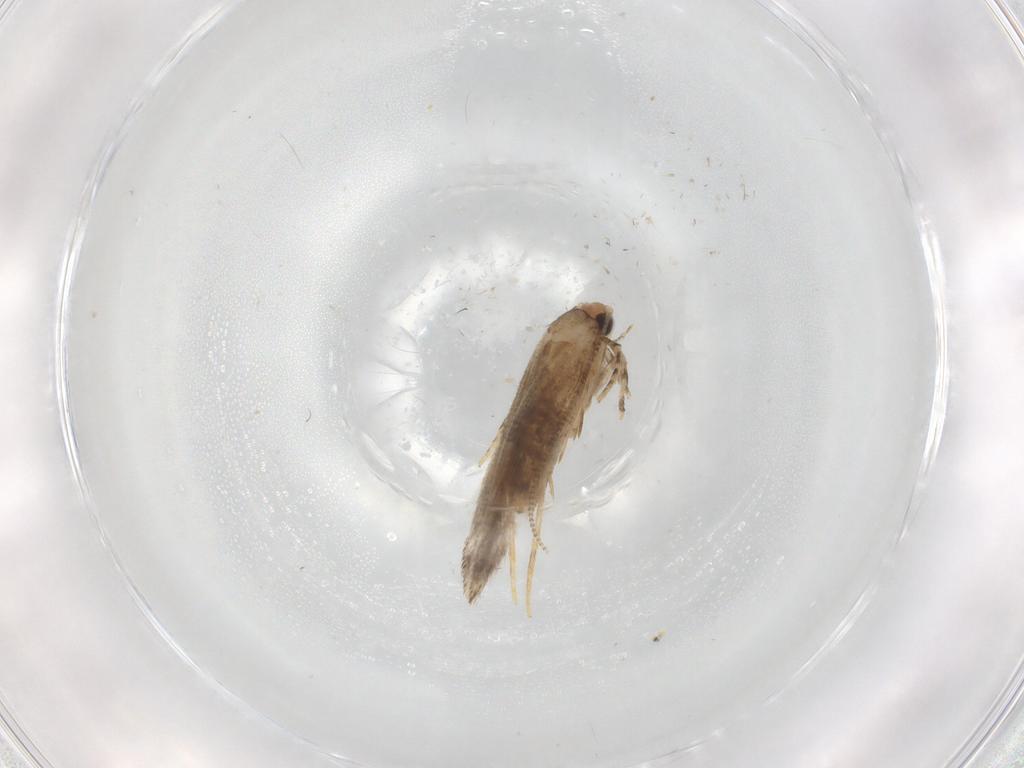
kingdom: Animalia
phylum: Arthropoda
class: Insecta
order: Lepidoptera
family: Tineidae
